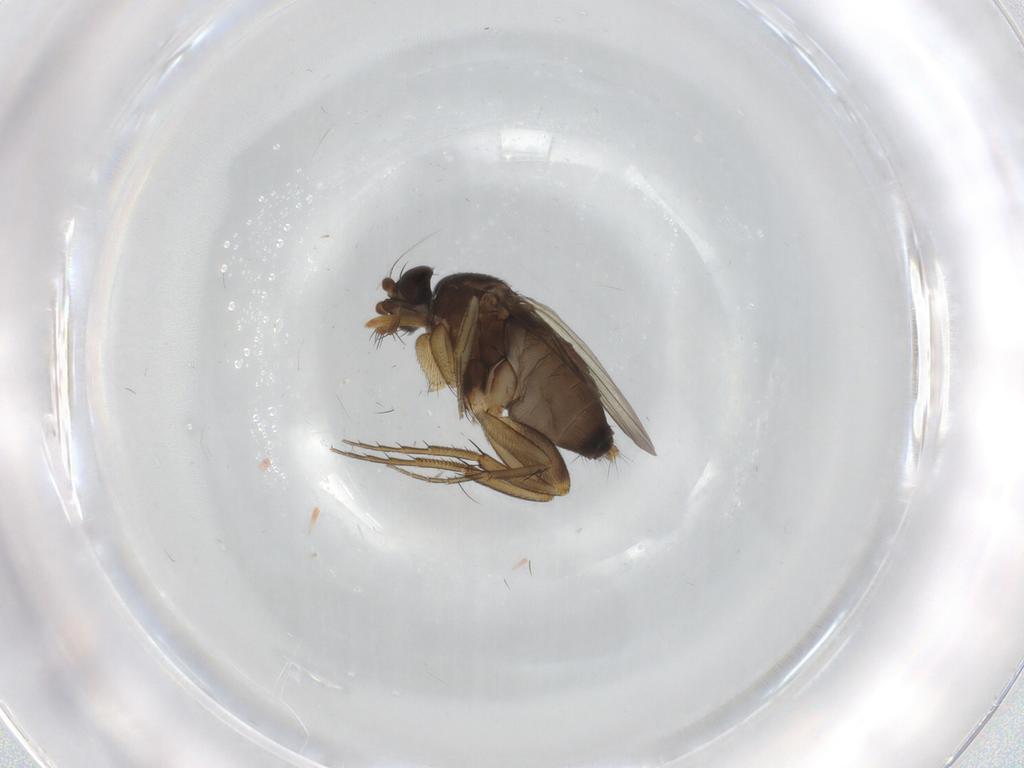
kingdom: Animalia
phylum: Arthropoda
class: Insecta
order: Diptera
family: Phoridae
